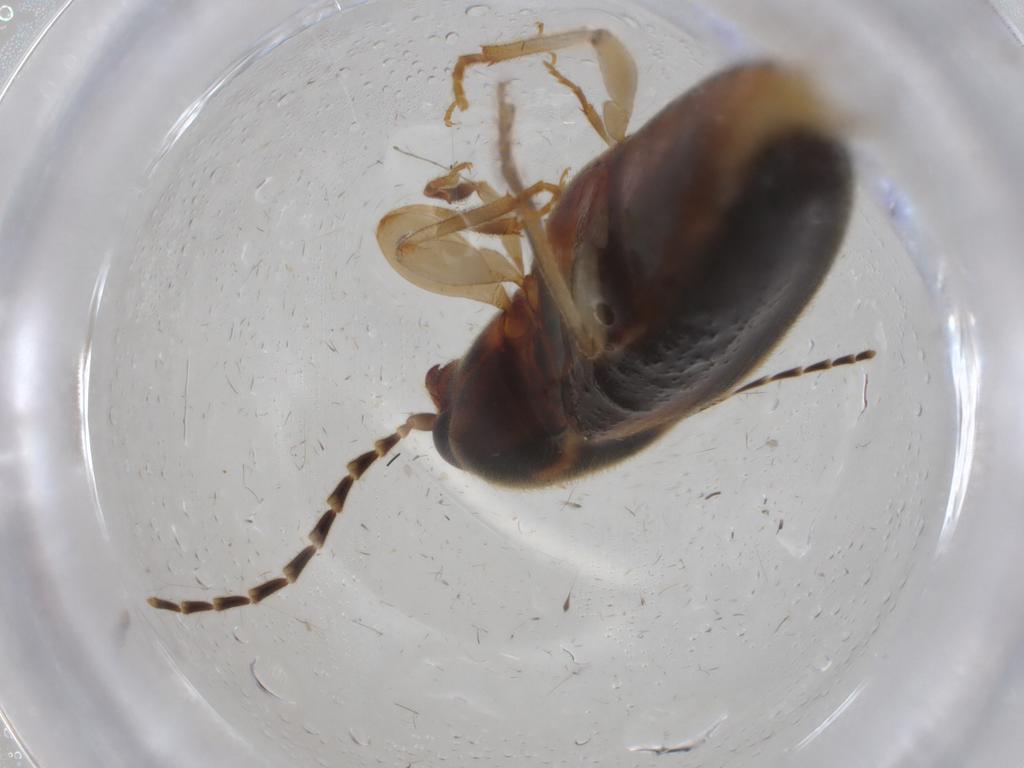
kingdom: Animalia
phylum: Arthropoda
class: Insecta
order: Coleoptera
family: Elateridae
